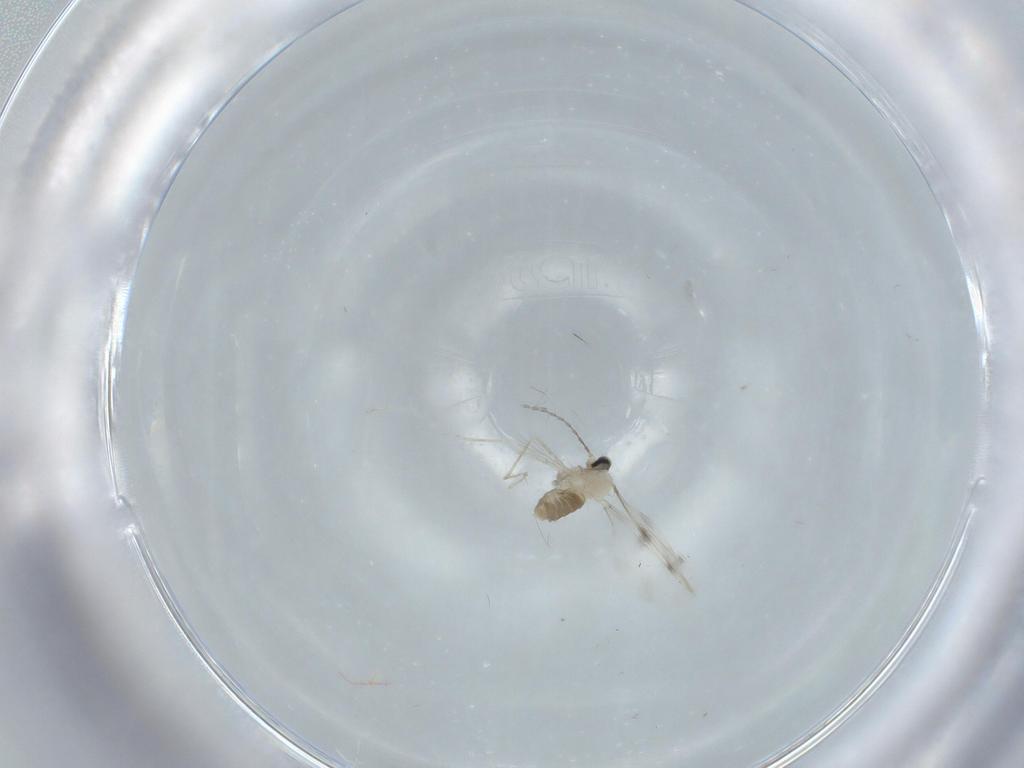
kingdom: Animalia
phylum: Arthropoda
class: Insecta
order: Diptera
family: Cecidomyiidae
